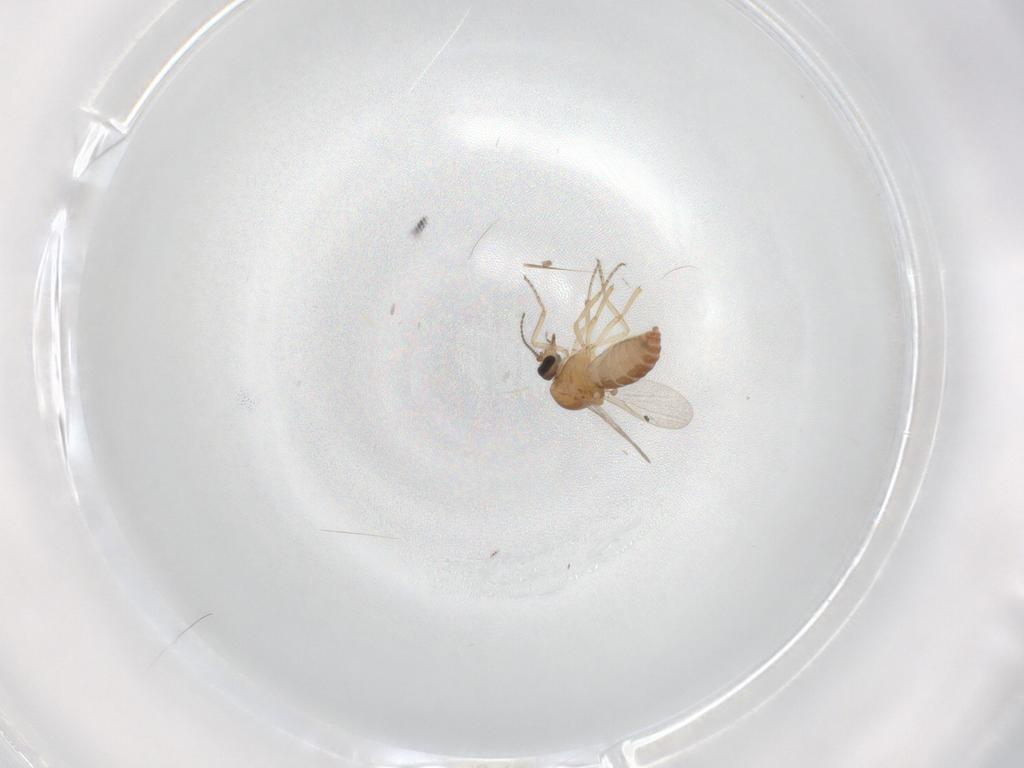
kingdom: Animalia
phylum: Arthropoda
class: Insecta
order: Diptera
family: Ceratopogonidae
